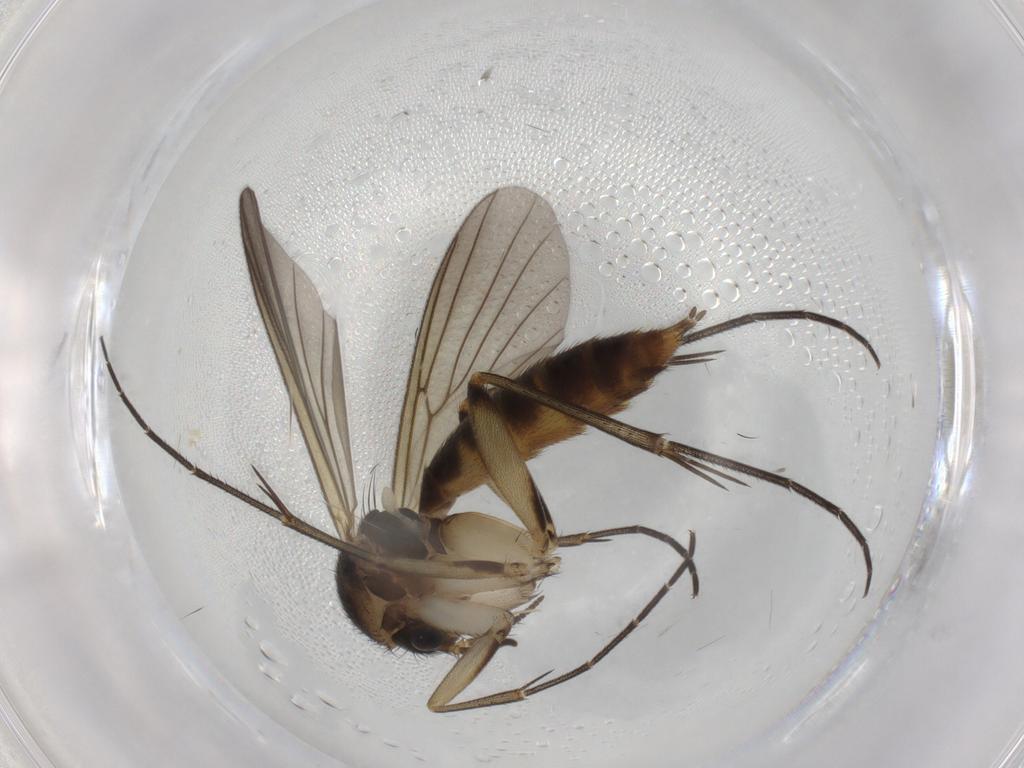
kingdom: Animalia
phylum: Arthropoda
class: Insecta
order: Diptera
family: Mycetophilidae
